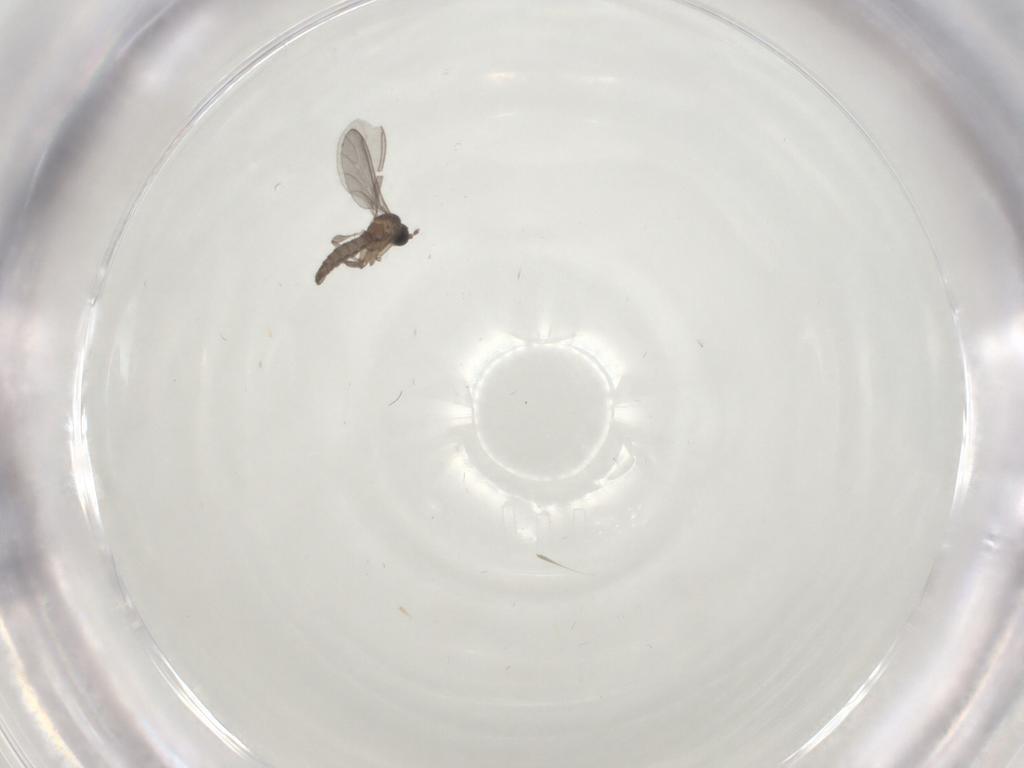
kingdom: Animalia
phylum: Arthropoda
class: Insecta
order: Diptera
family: Sciaridae
